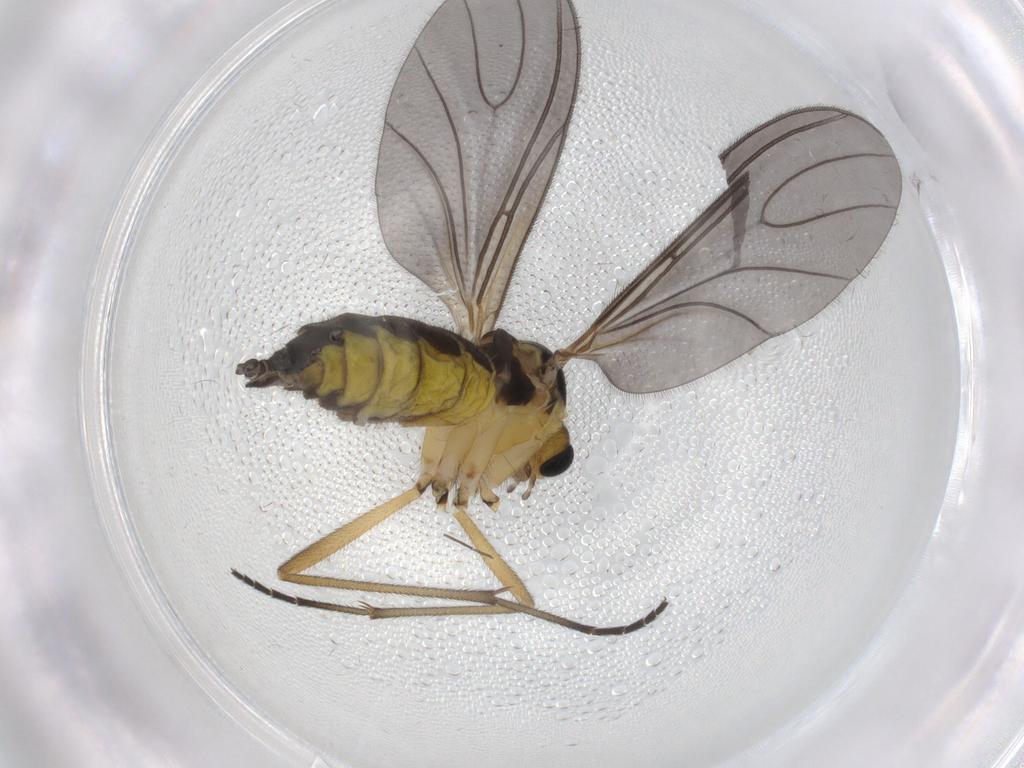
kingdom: Animalia
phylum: Arthropoda
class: Insecta
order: Diptera
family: Sciaridae
